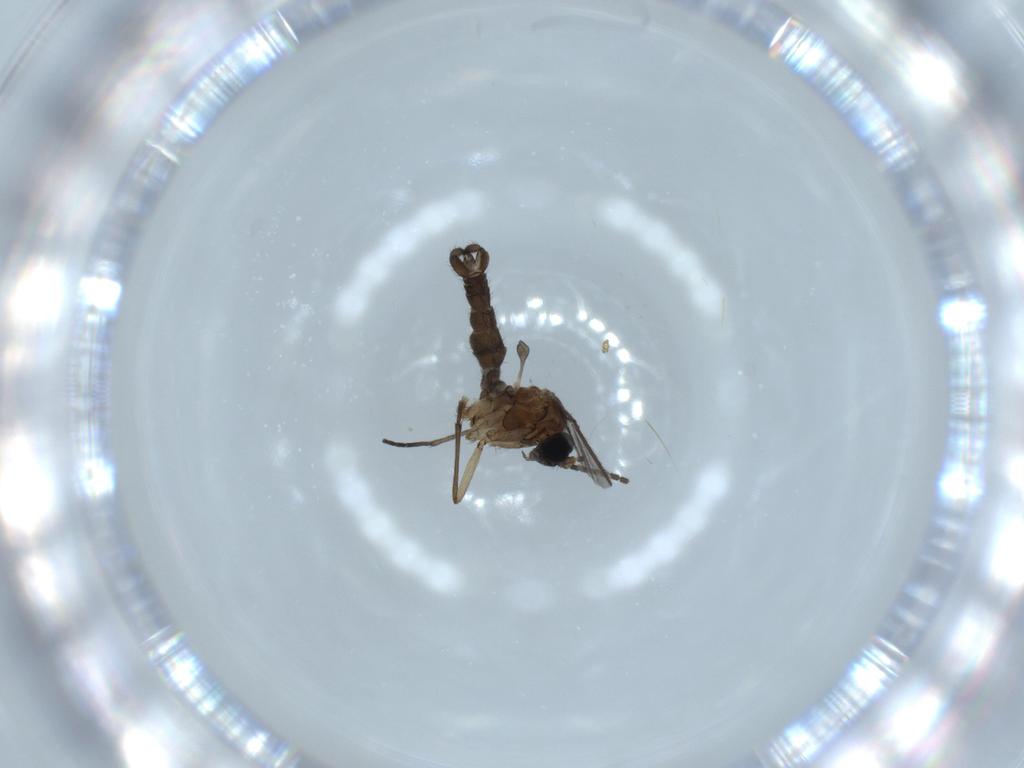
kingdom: Animalia
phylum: Arthropoda
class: Insecta
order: Diptera
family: Sciaridae
